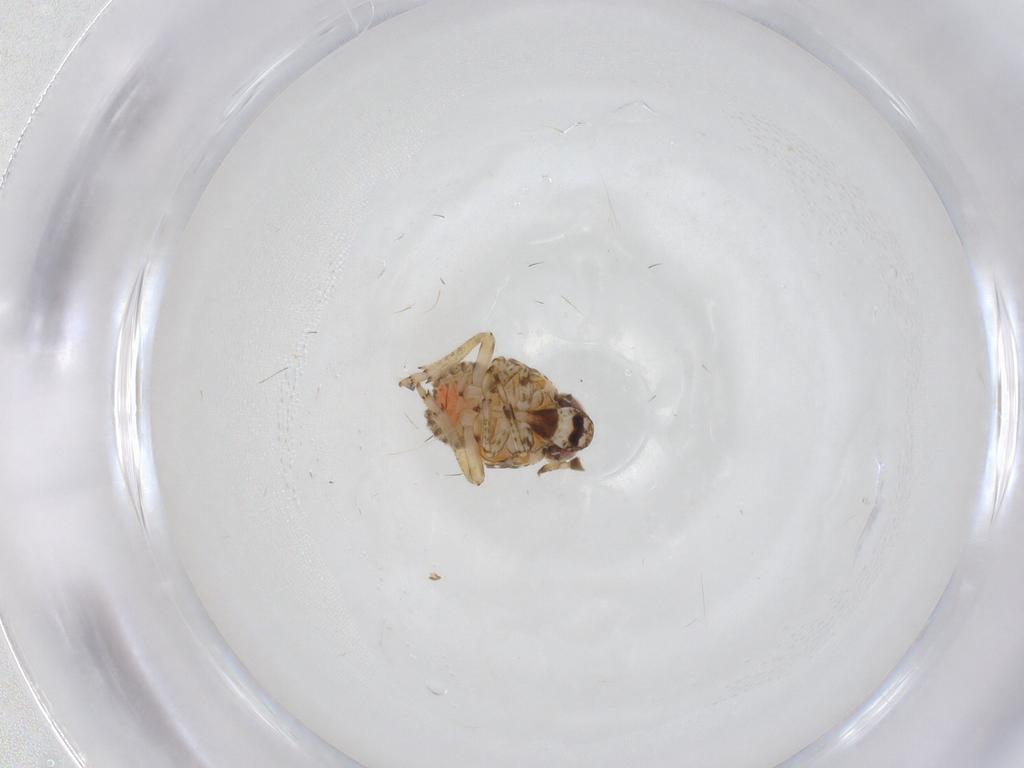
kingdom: Animalia
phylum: Arthropoda
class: Insecta
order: Hemiptera
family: Issidae
